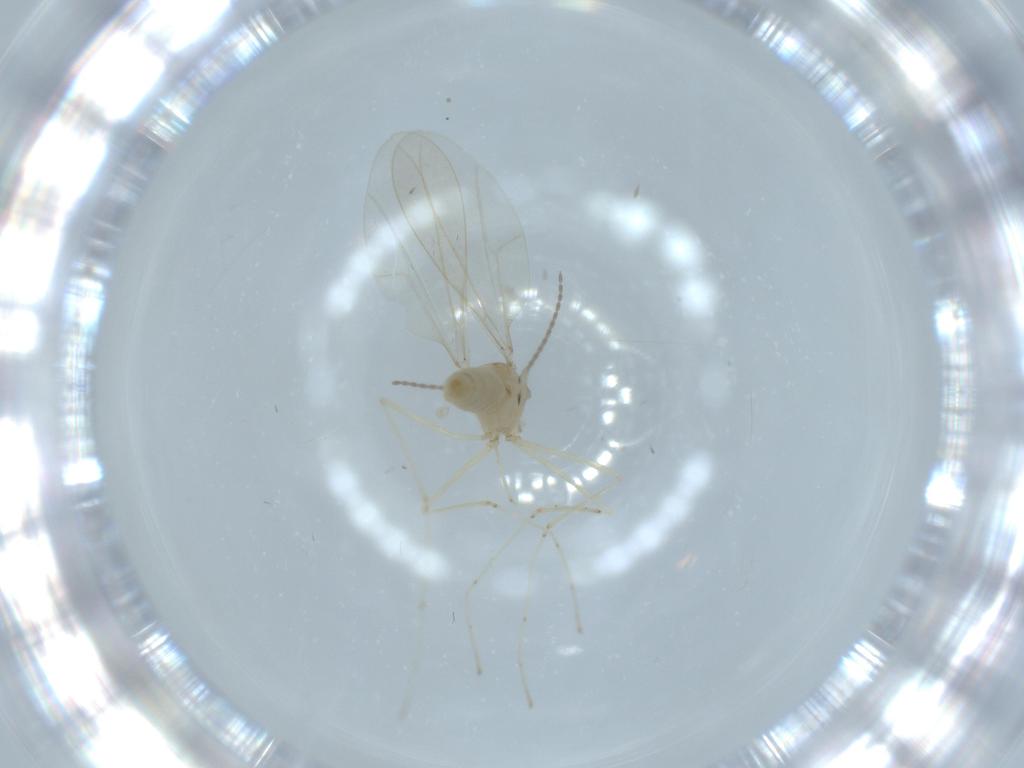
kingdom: Animalia
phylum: Arthropoda
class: Insecta
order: Diptera
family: Cecidomyiidae
